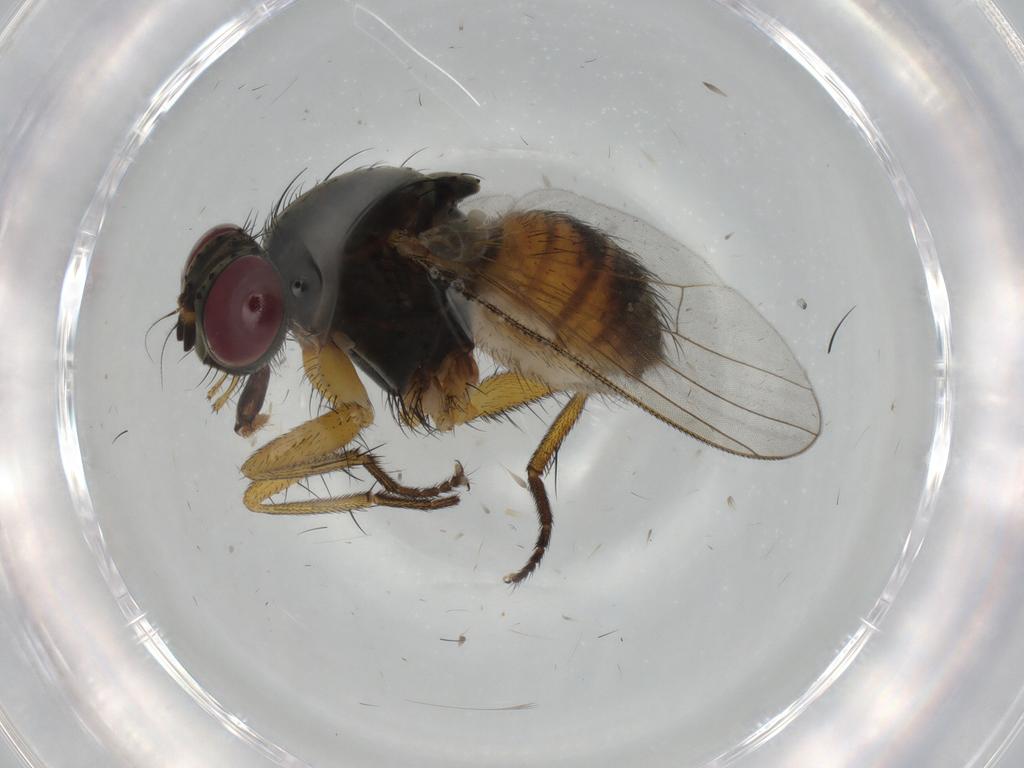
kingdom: Animalia
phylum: Arthropoda
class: Insecta
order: Diptera
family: Muscidae
